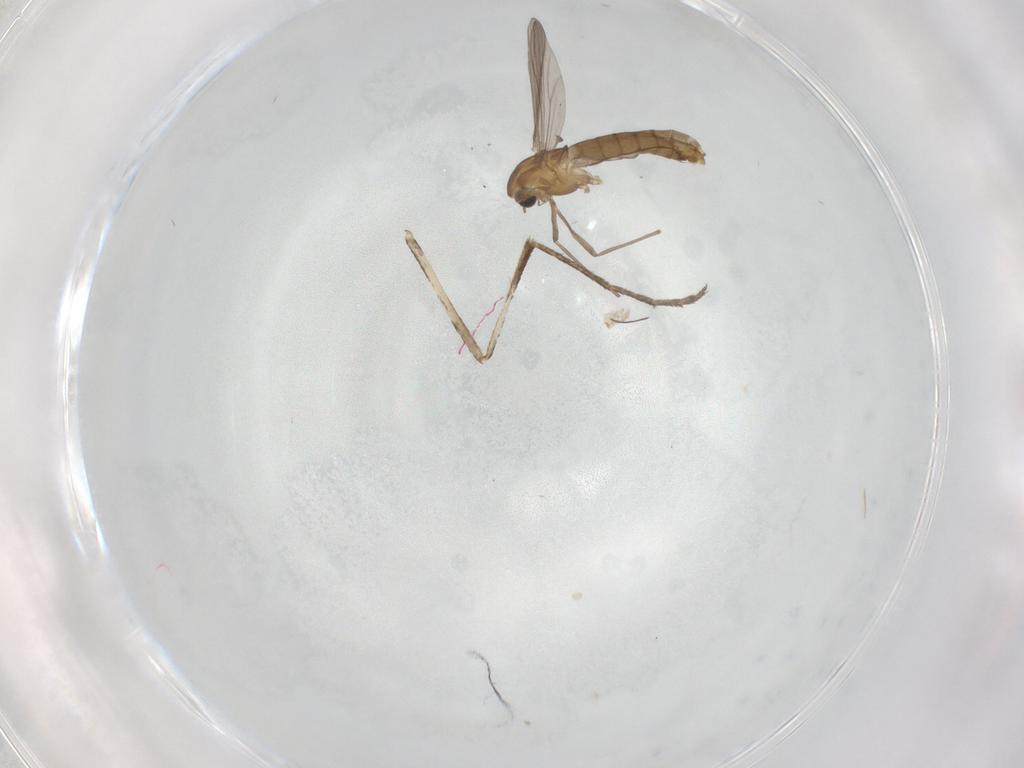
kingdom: Animalia
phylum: Arthropoda
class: Insecta
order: Diptera
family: Culicidae
